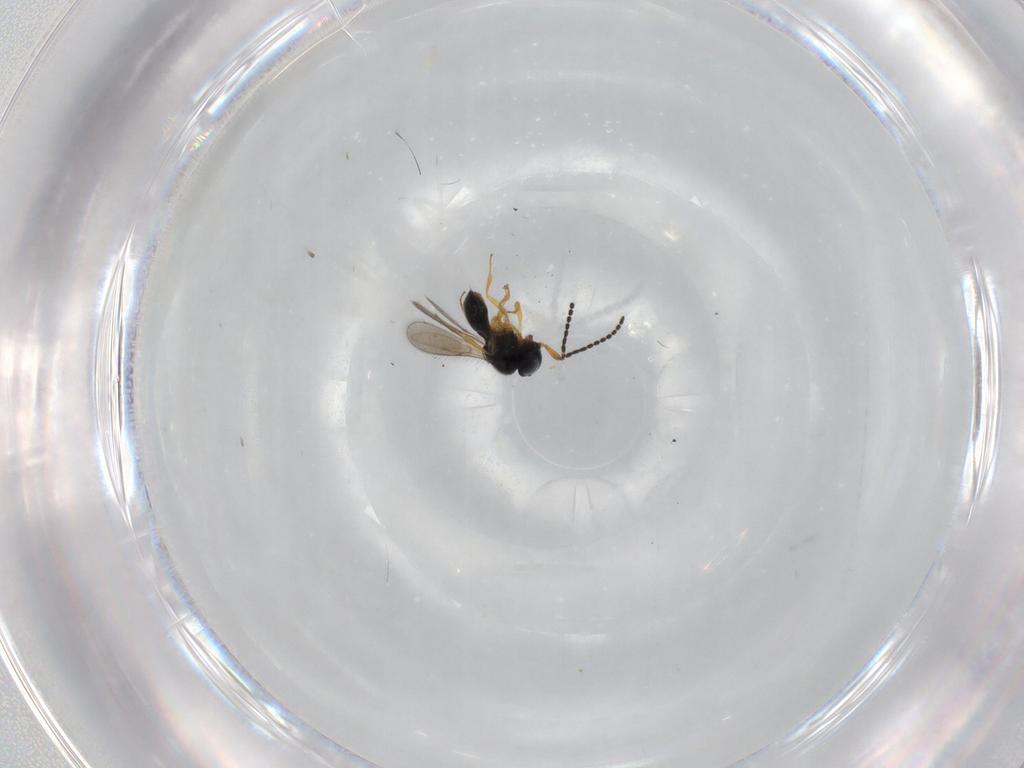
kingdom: Animalia
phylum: Arthropoda
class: Insecta
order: Hymenoptera
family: Scelionidae
